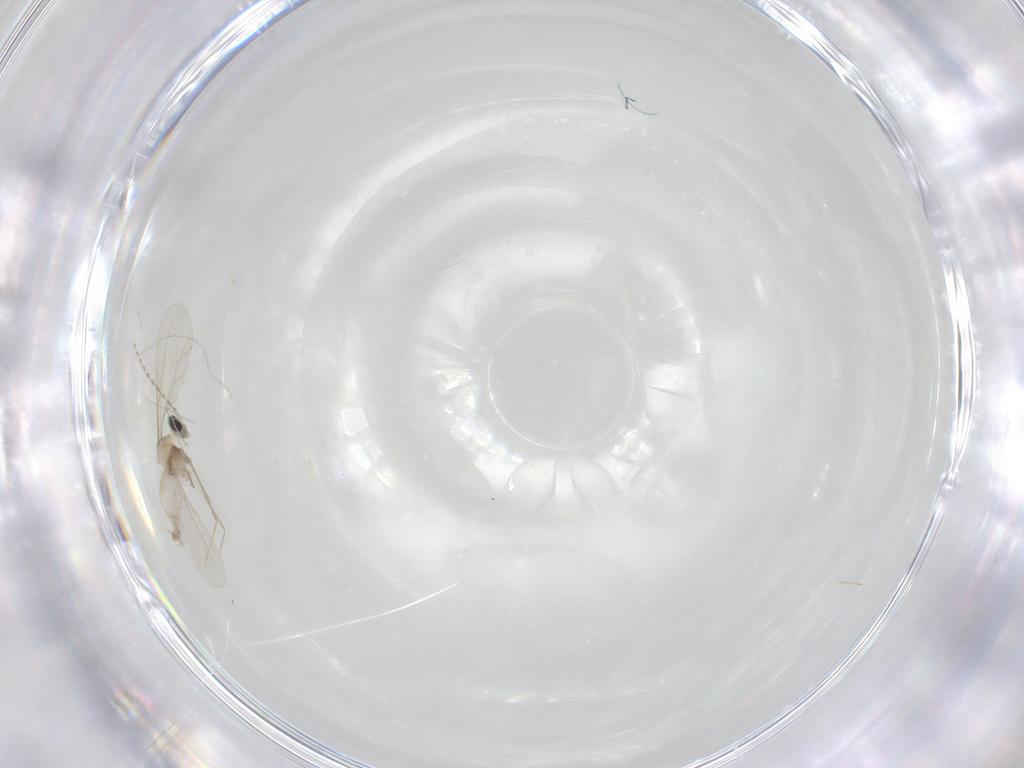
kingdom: Animalia
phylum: Arthropoda
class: Insecta
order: Diptera
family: Cecidomyiidae
